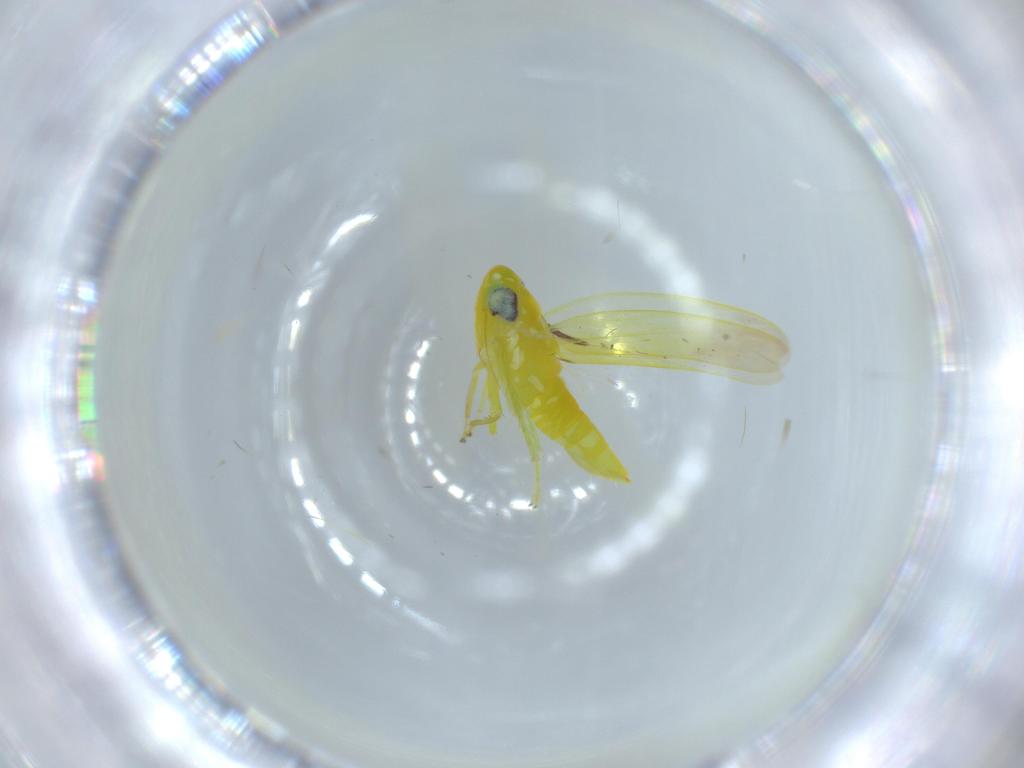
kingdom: Animalia
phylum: Arthropoda
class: Insecta
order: Hemiptera
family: Cicadellidae
